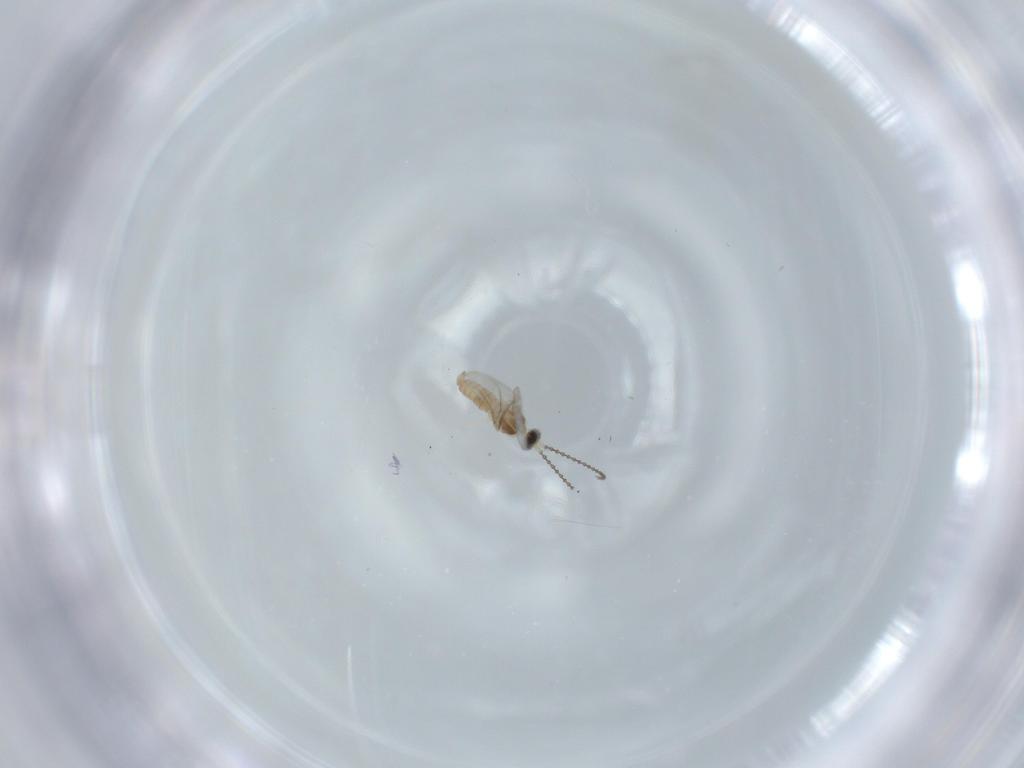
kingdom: Animalia
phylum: Arthropoda
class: Insecta
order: Diptera
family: Cecidomyiidae
